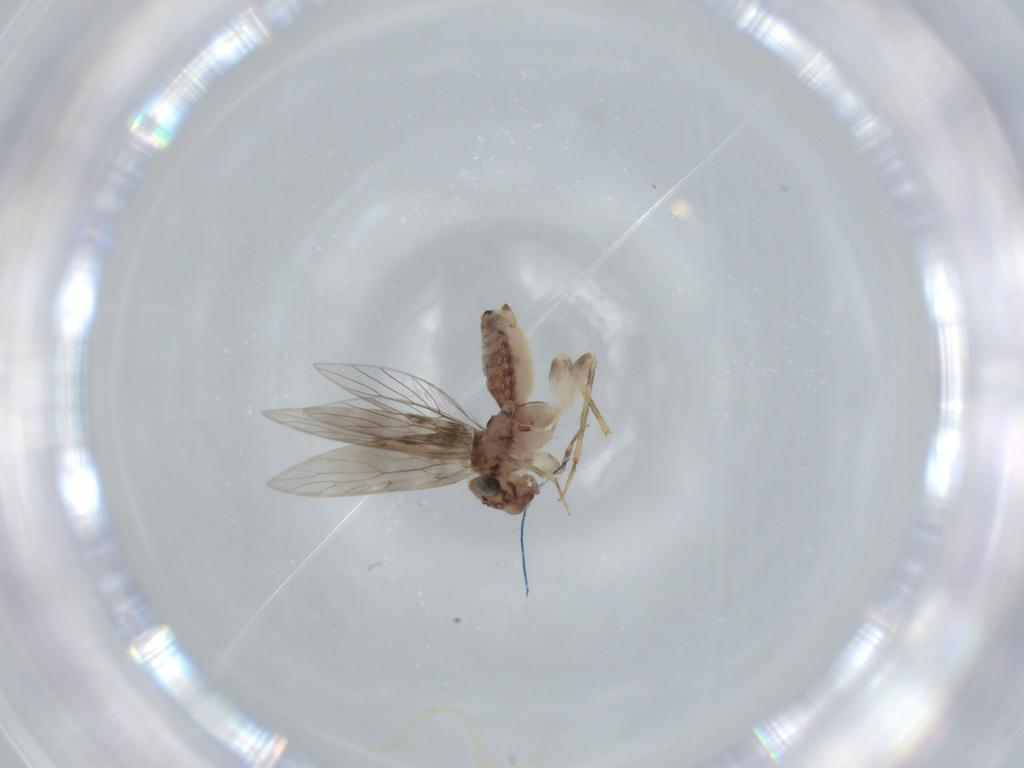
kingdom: Animalia
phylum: Arthropoda
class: Insecta
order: Psocodea
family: Lepidopsocidae
